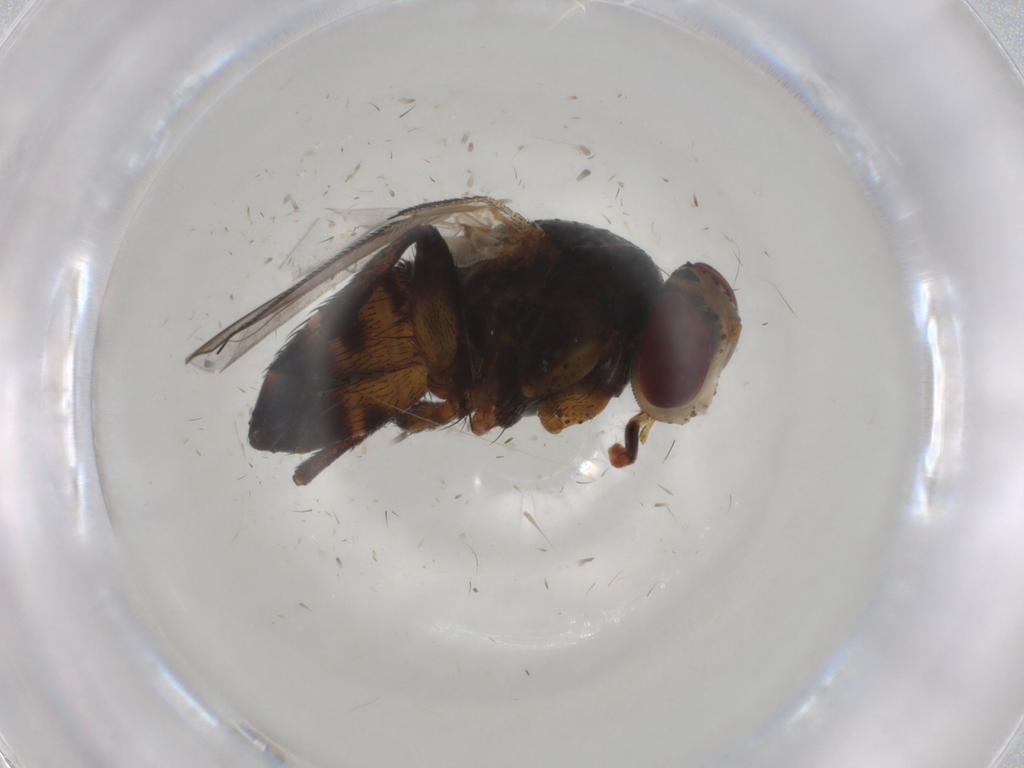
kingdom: Animalia
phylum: Arthropoda
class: Insecta
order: Diptera
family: Glossinidae
